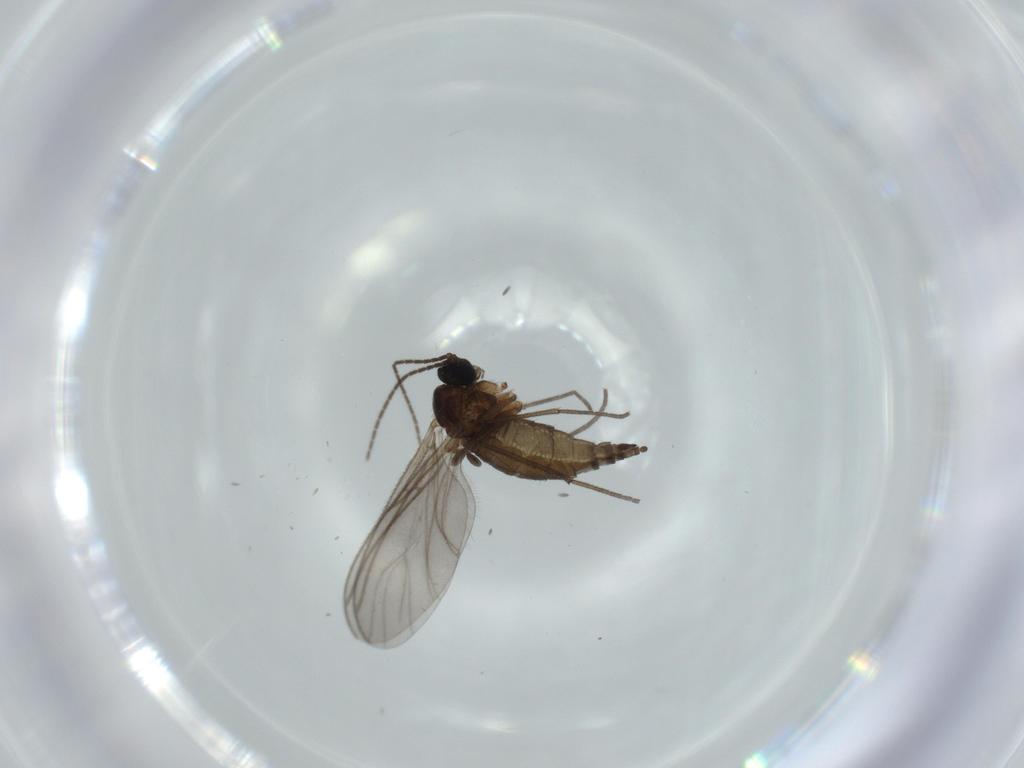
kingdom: Animalia
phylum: Arthropoda
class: Insecta
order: Diptera
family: Sciaridae
